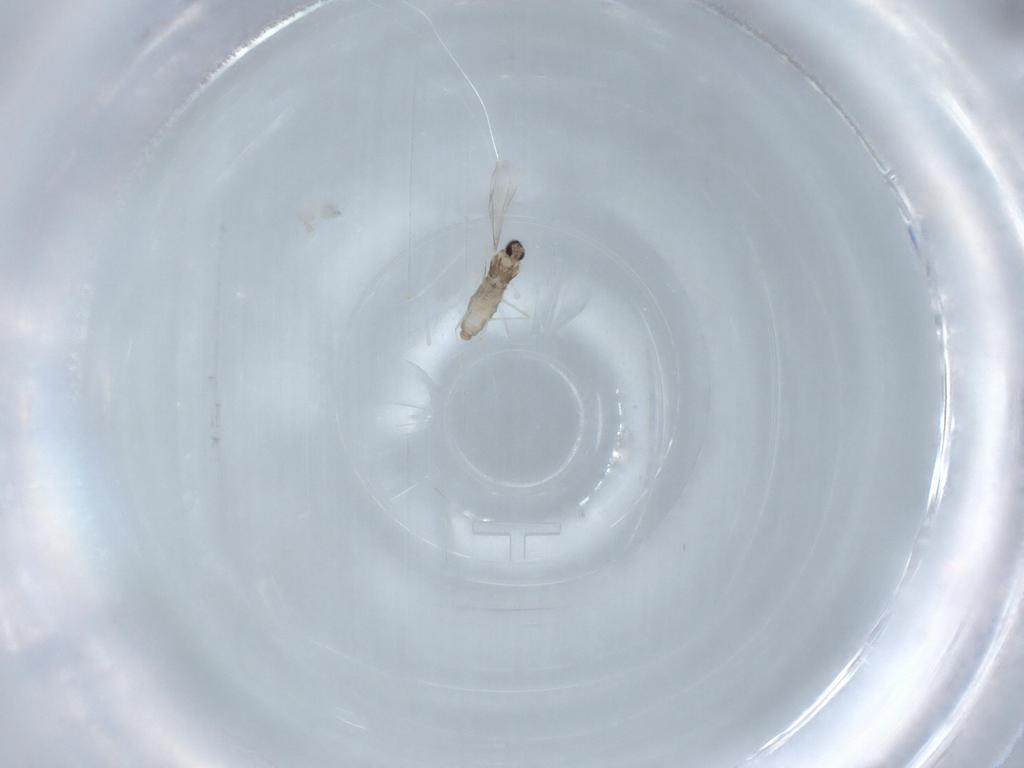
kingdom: Animalia
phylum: Arthropoda
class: Insecta
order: Diptera
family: Cecidomyiidae
